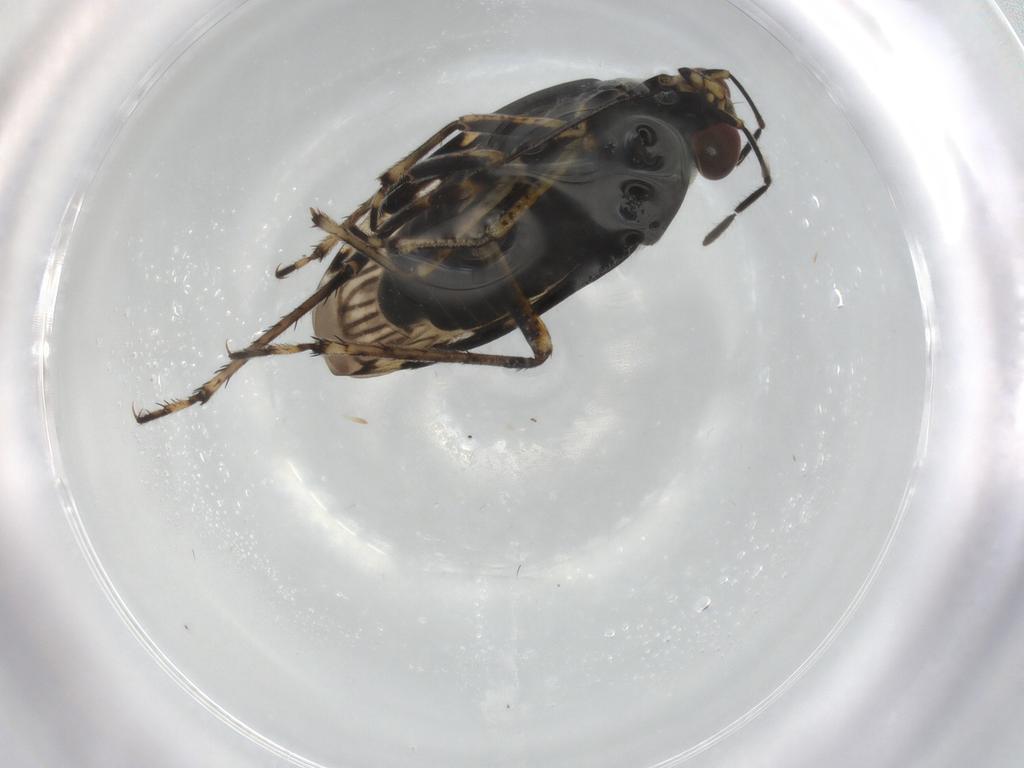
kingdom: Animalia
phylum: Arthropoda
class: Insecta
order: Hemiptera
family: Saldidae
